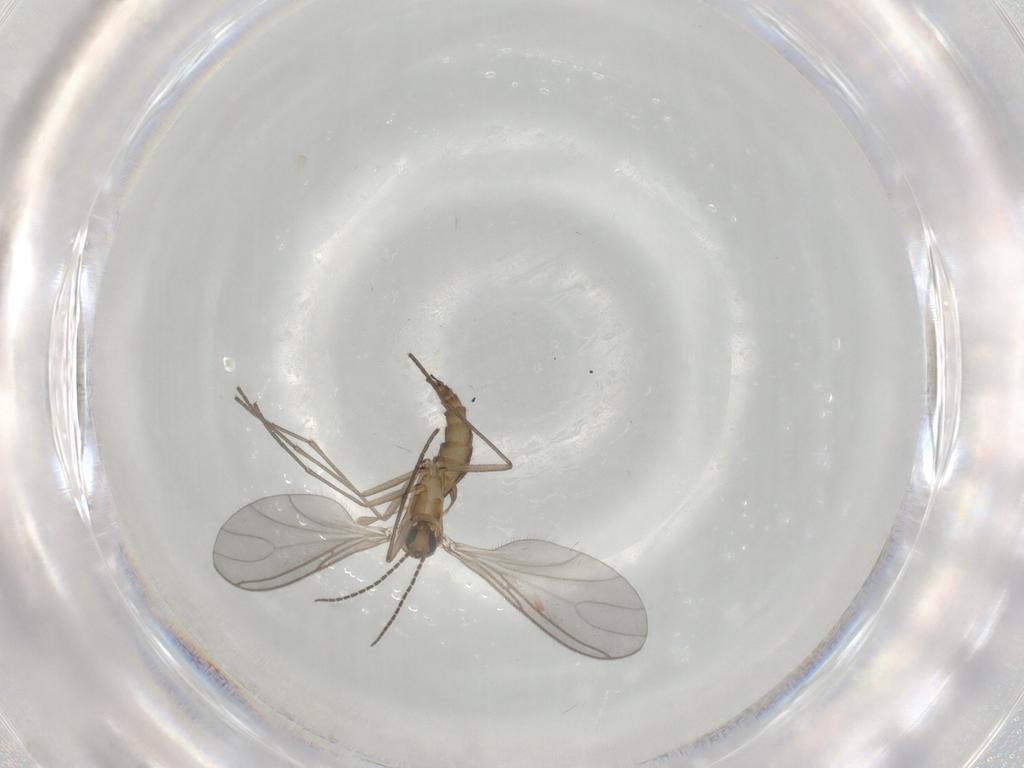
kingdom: Animalia
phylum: Arthropoda
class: Insecta
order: Diptera
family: Sciaridae
